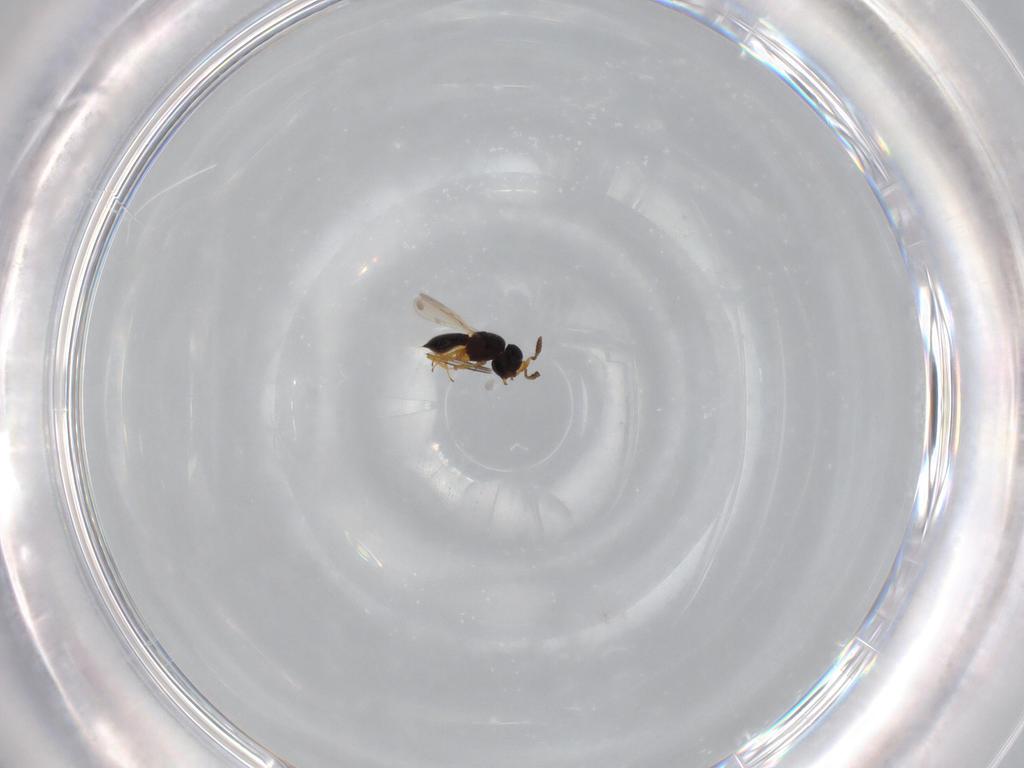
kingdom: Animalia
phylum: Arthropoda
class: Insecta
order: Hymenoptera
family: Scelionidae
